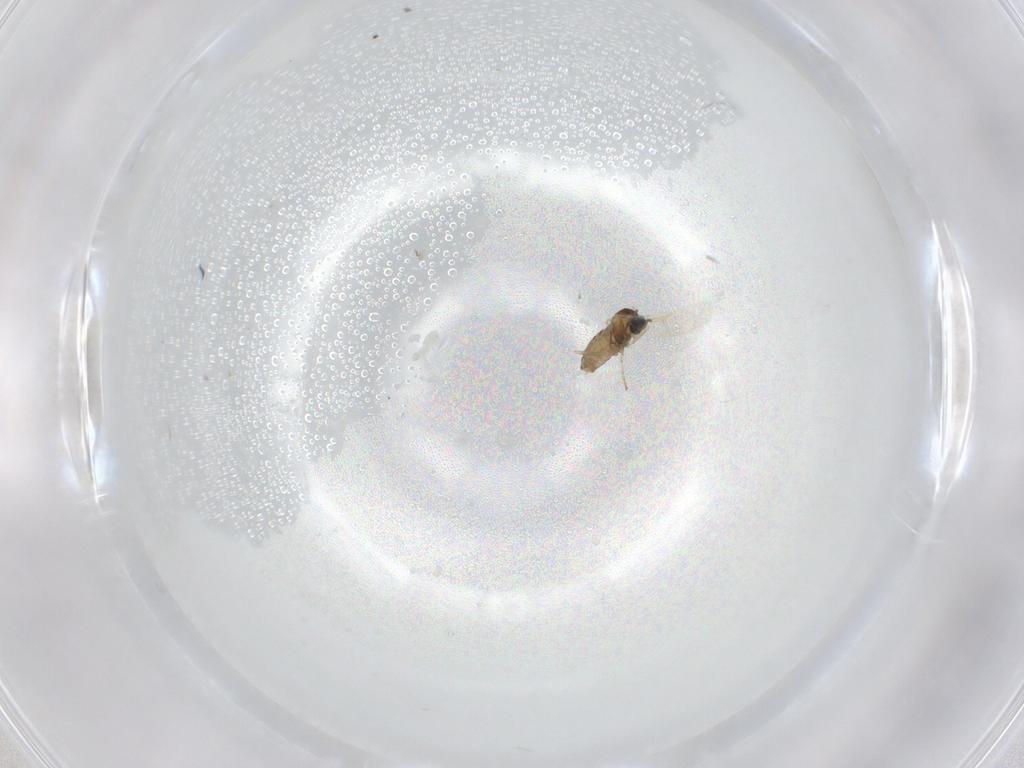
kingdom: Animalia
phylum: Arthropoda
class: Insecta
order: Diptera
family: Cecidomyiidae
